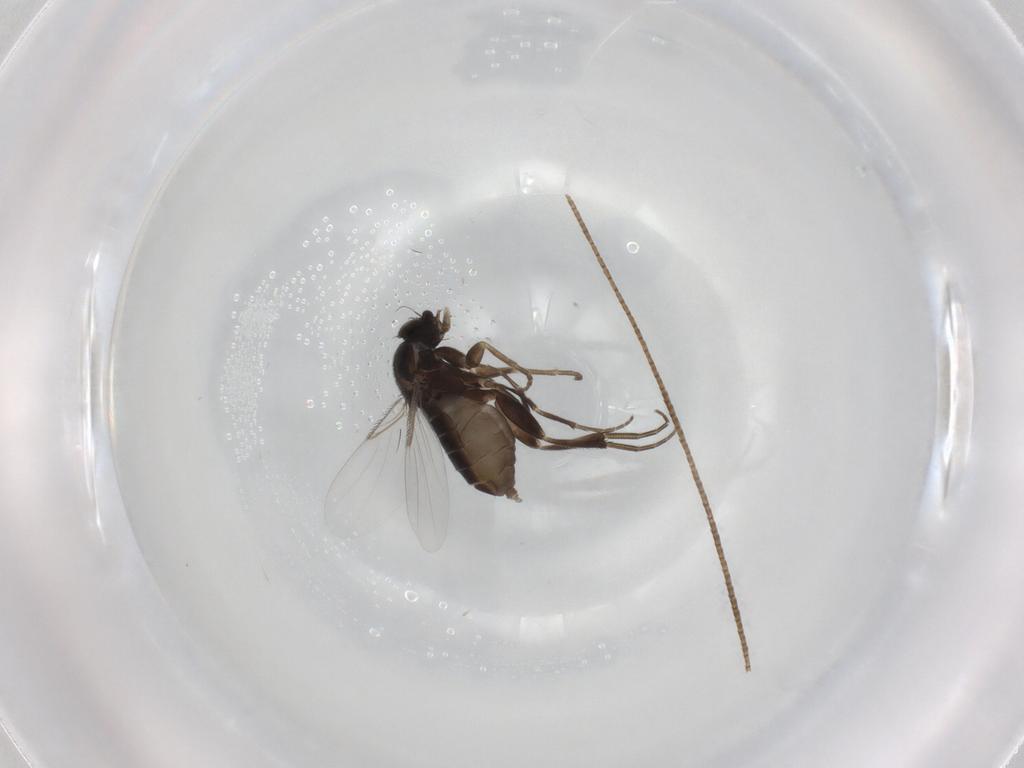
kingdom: Animalia
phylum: Arthropoda
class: Insecta
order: Diptera
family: Phoridae
